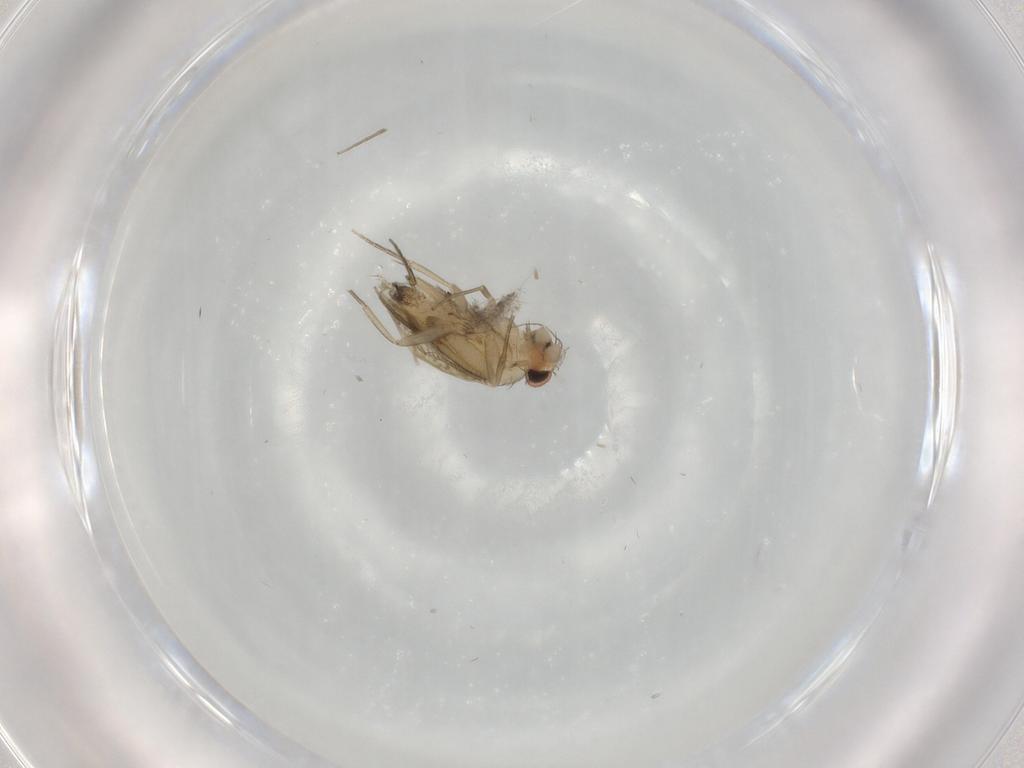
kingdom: Animalia
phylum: Arthropoda
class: Insecta
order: Diptera
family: Phoridae
